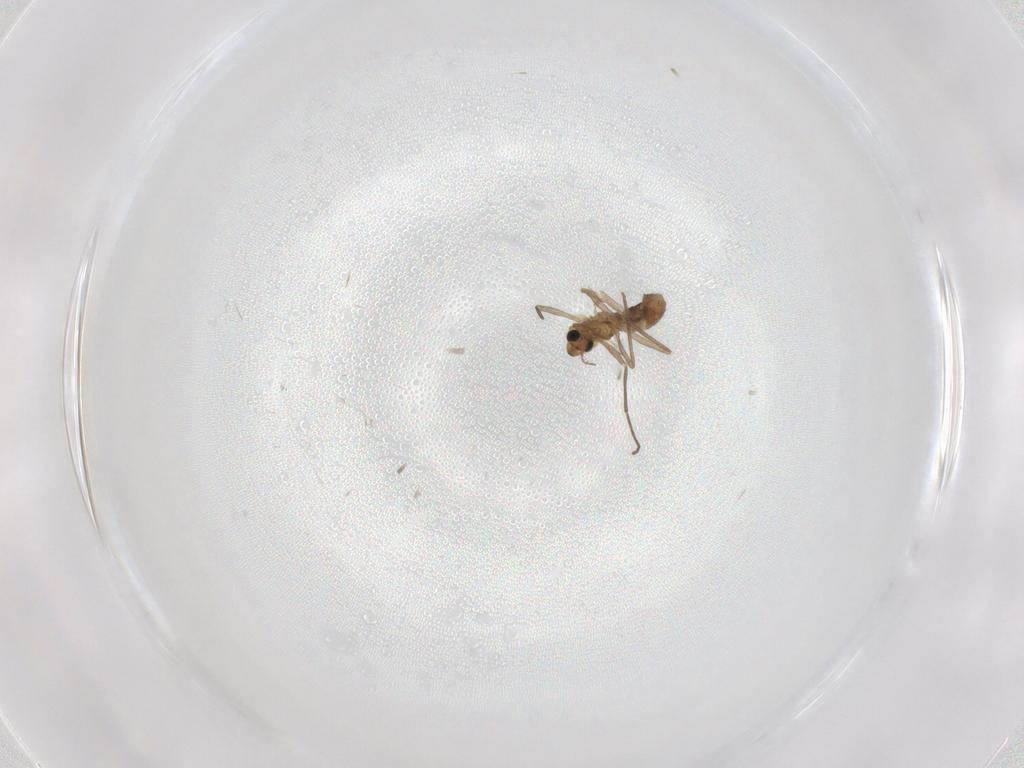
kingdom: Animalia
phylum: Arthropoda
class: Insecta
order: Diptera
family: Chironomidae
